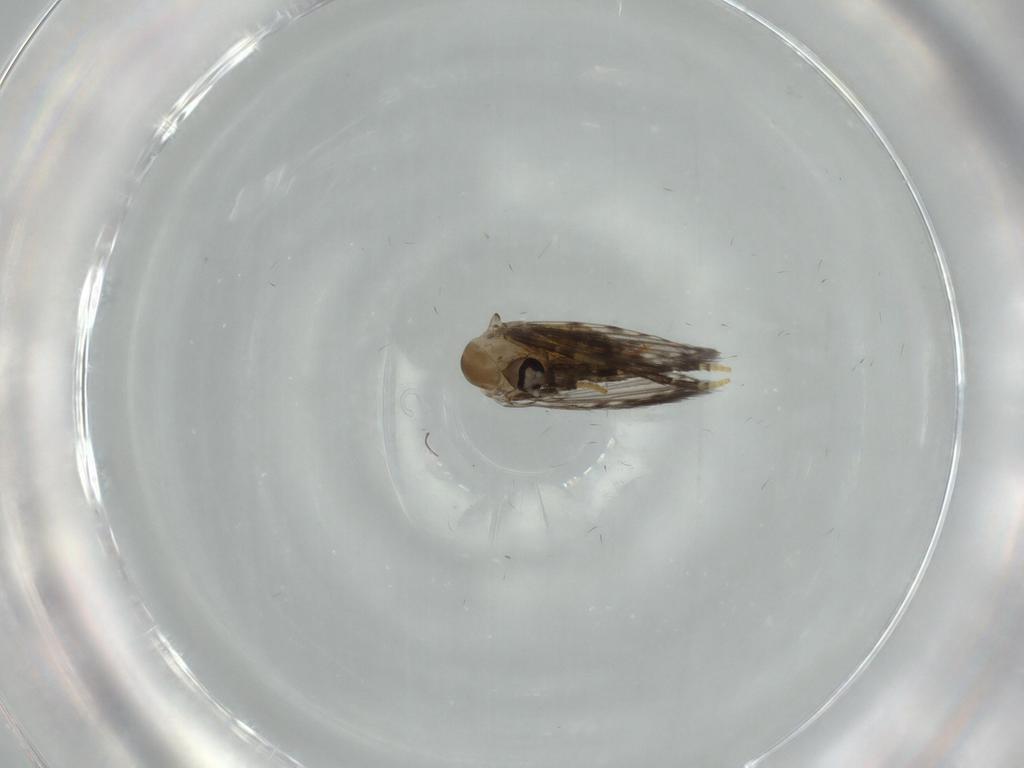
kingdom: Animalia
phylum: Arthropoda
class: Insecta
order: Diptera
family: Psychodidae
